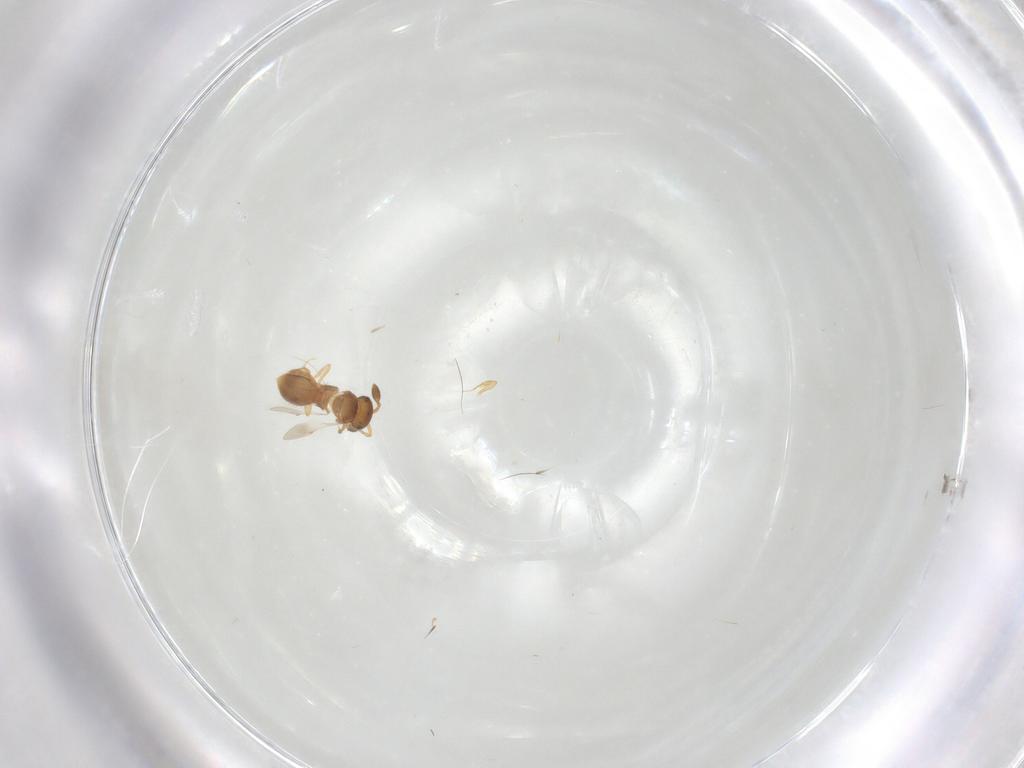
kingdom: Animalia
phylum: Arthropoda
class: Insecta
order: Hymenoptera
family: Scelionidae
